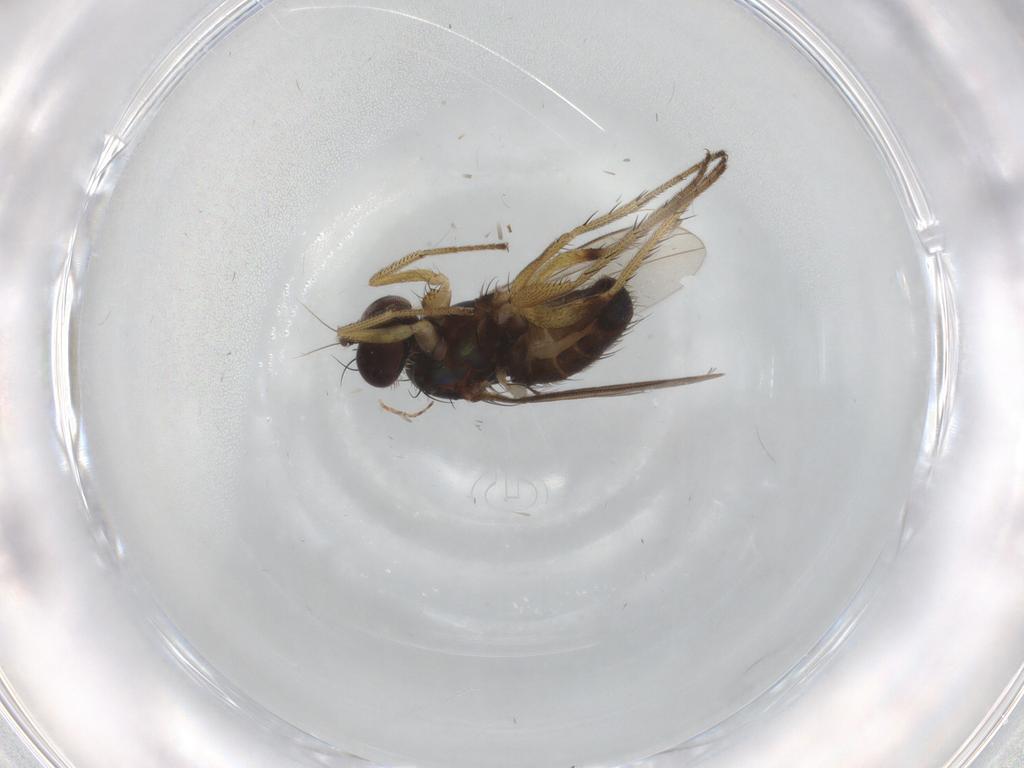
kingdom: Animalia
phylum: Arthropoda
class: Insecta
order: Diptera
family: Dolichopodidae
